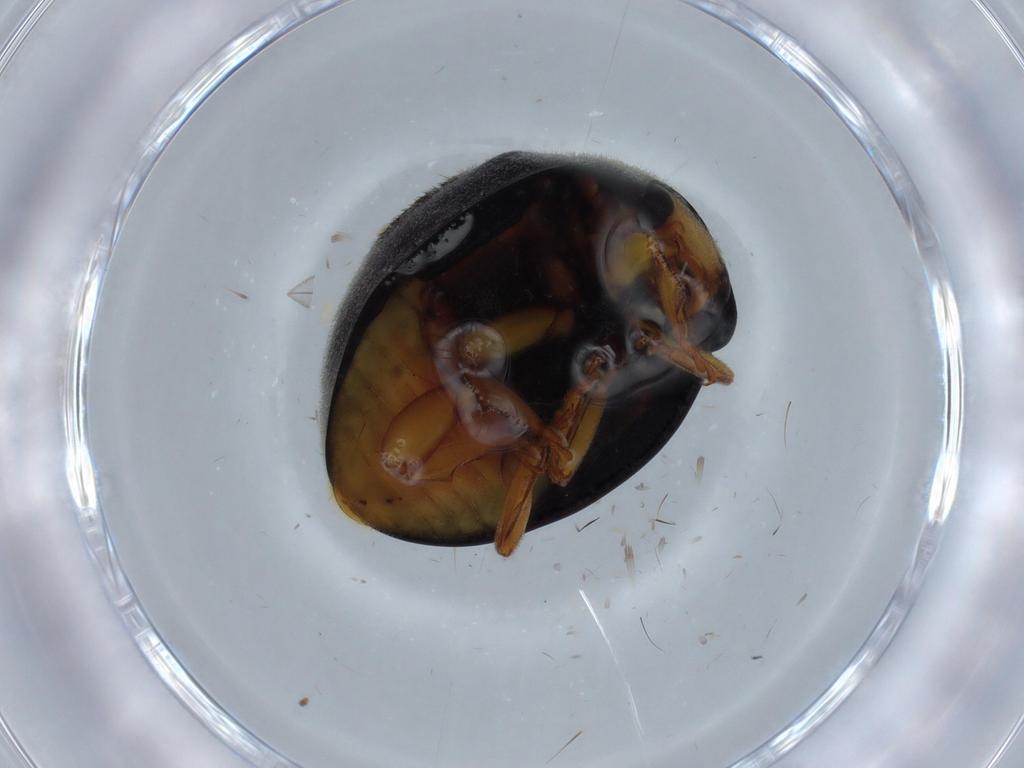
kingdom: Animalia
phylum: Arthropoda
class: Insecta
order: Coleoptera
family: Coccinellidae
